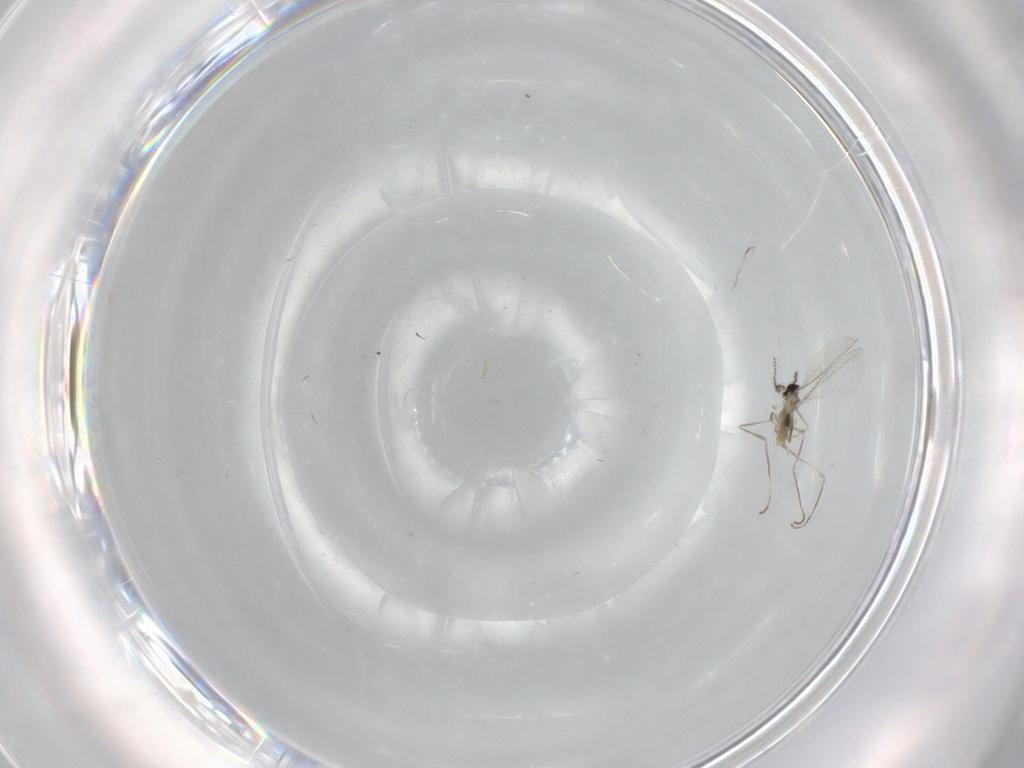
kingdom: Animalia
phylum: Arthropoda
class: Insecta
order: Diptera
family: Cecidomyiidae
